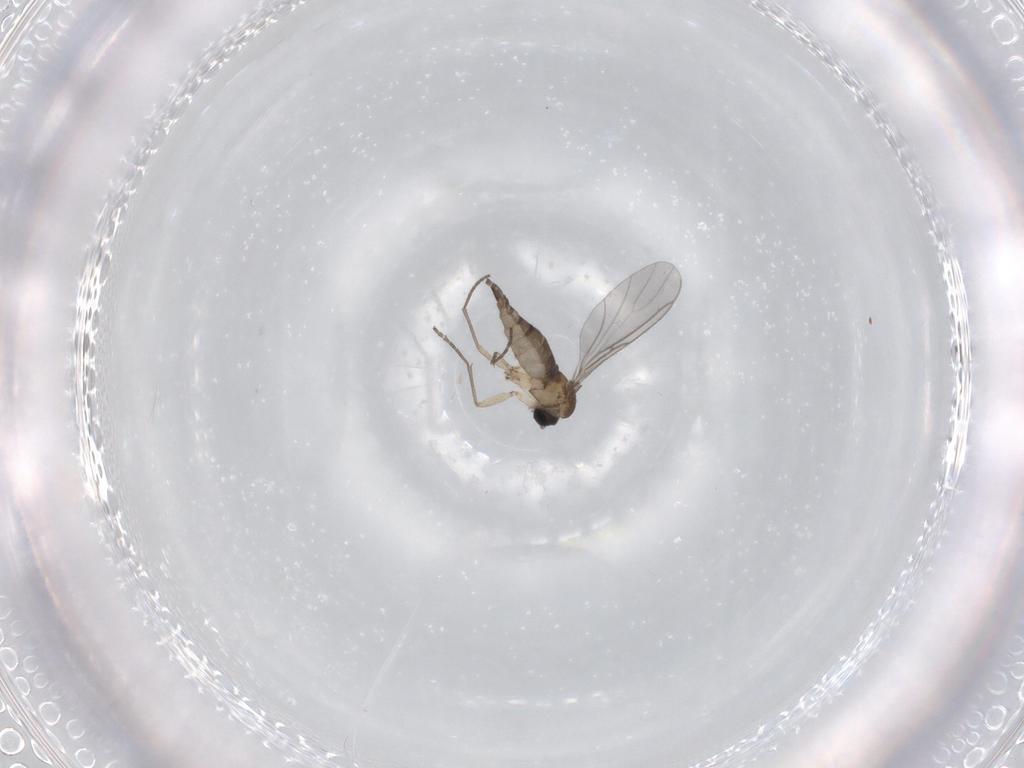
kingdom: Animalia
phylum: Arthropoda
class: Insecta
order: Diptera
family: Sciaridae
